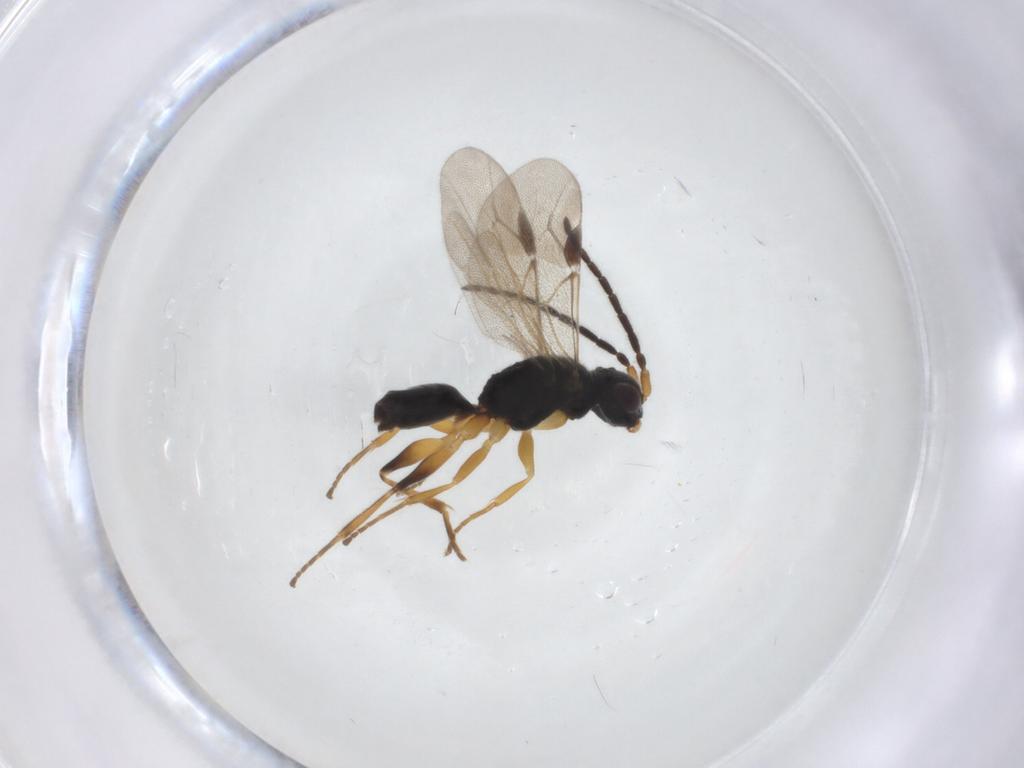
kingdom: Animalia
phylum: Arthropoda
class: Insecta
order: Hymenoptera
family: Dryinidae
